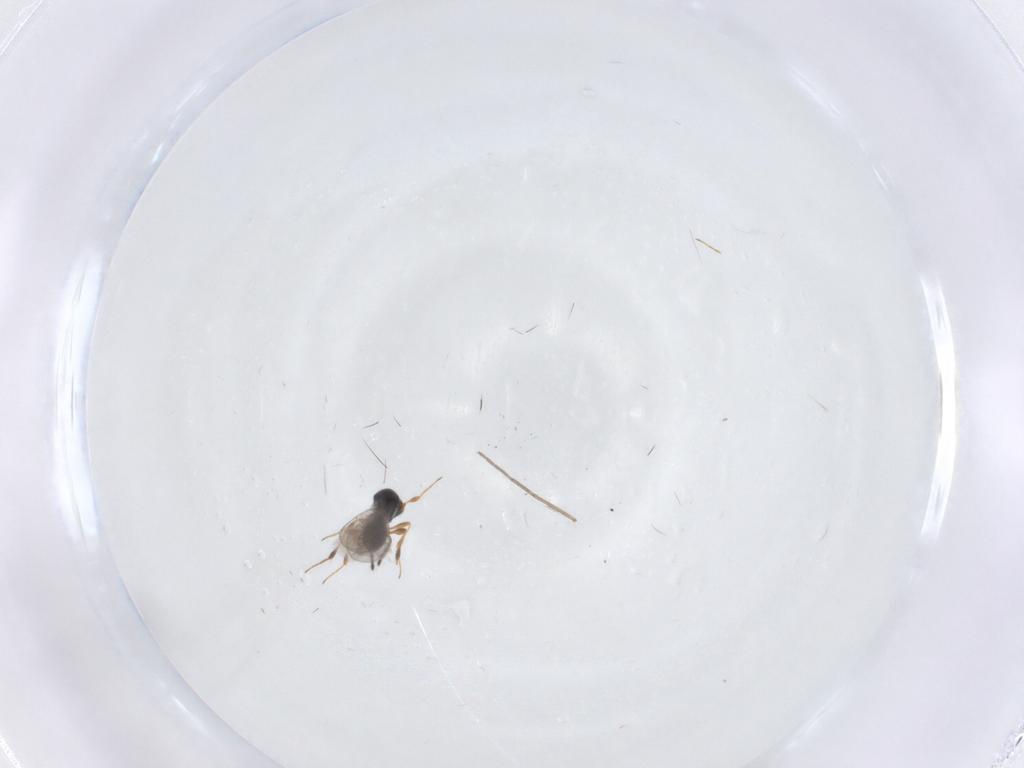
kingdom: Animalia
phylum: Arthropoda
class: Insecta
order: Hymenoptera
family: Platygastridae
